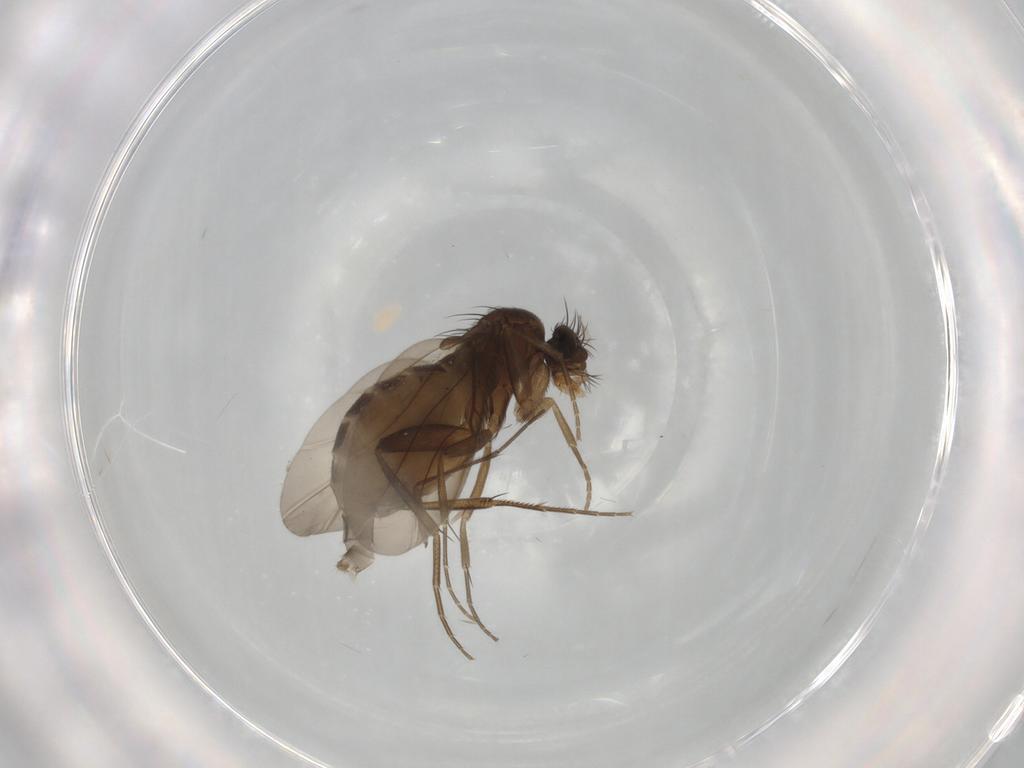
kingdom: Animalia
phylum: Arthropoda
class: Insecta
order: Diptera
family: Phoridae
